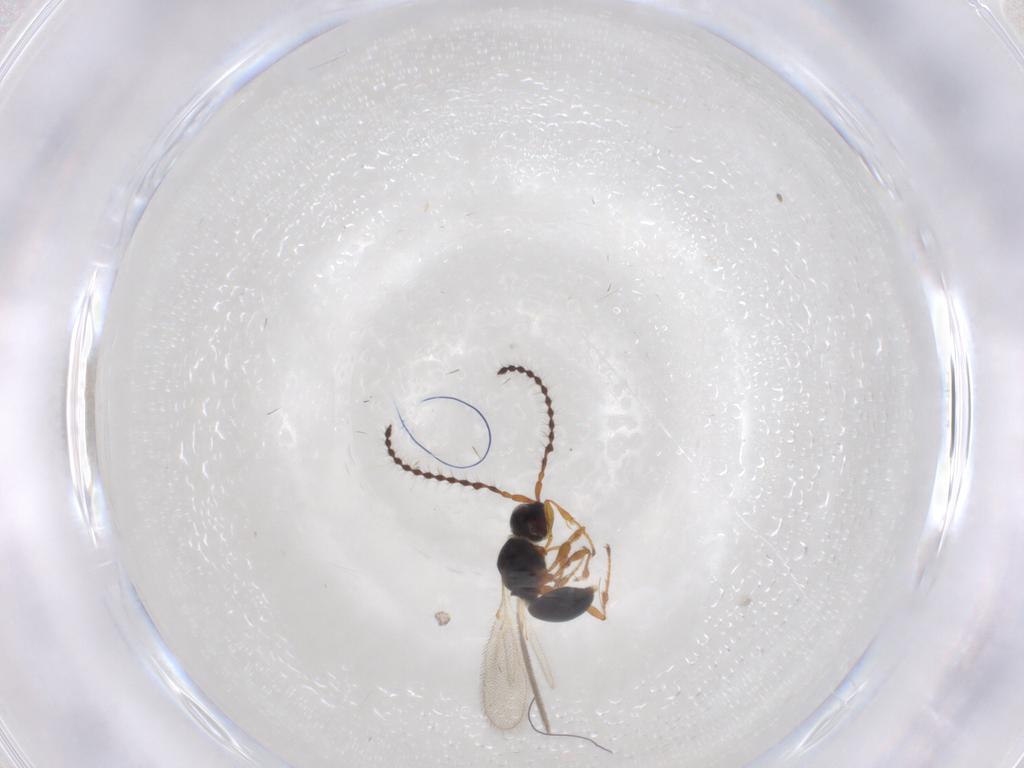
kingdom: Animalia
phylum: Arthropoda
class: Insecta
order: Hymenoptera
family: Diapriidae
